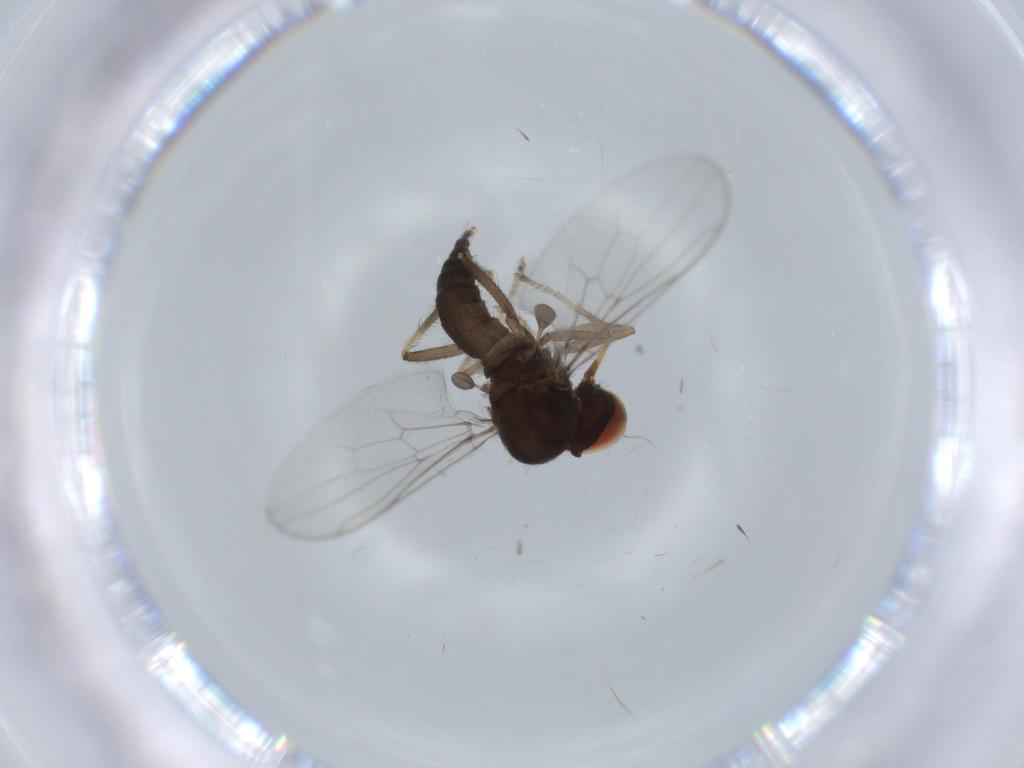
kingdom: Animalia
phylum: Arthropoda
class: Insecta
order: Diptera
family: Hybotidae
